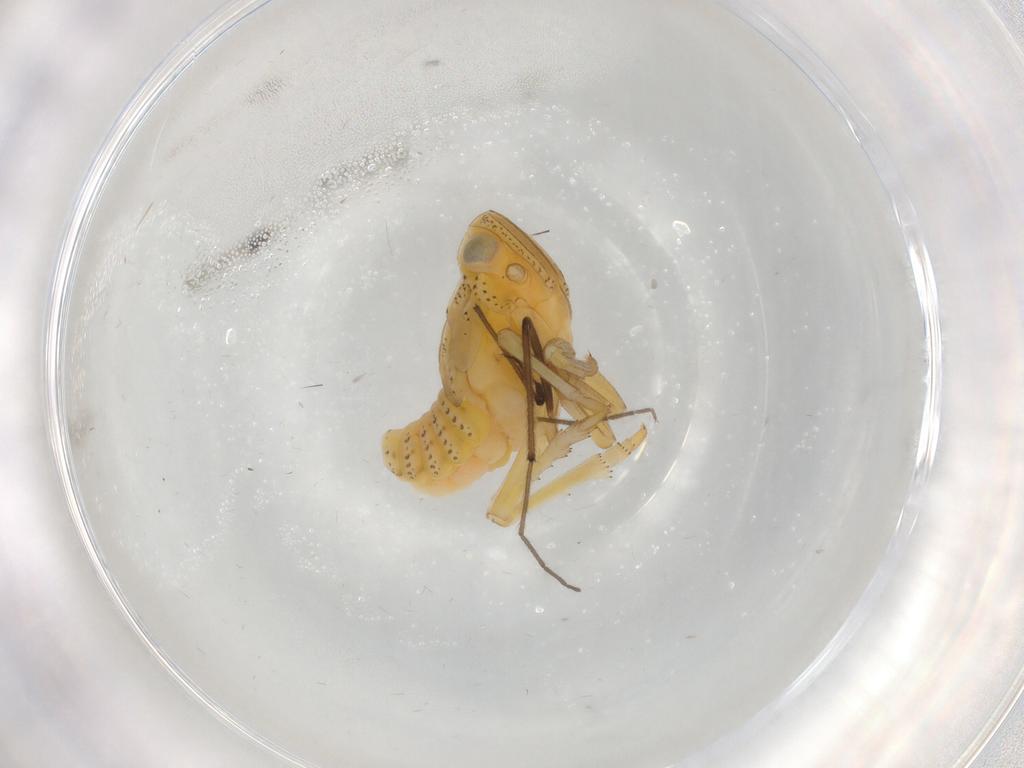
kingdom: Animalia
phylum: Arthropoda
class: Insecta
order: Hemiptera
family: Tropiduchidae
